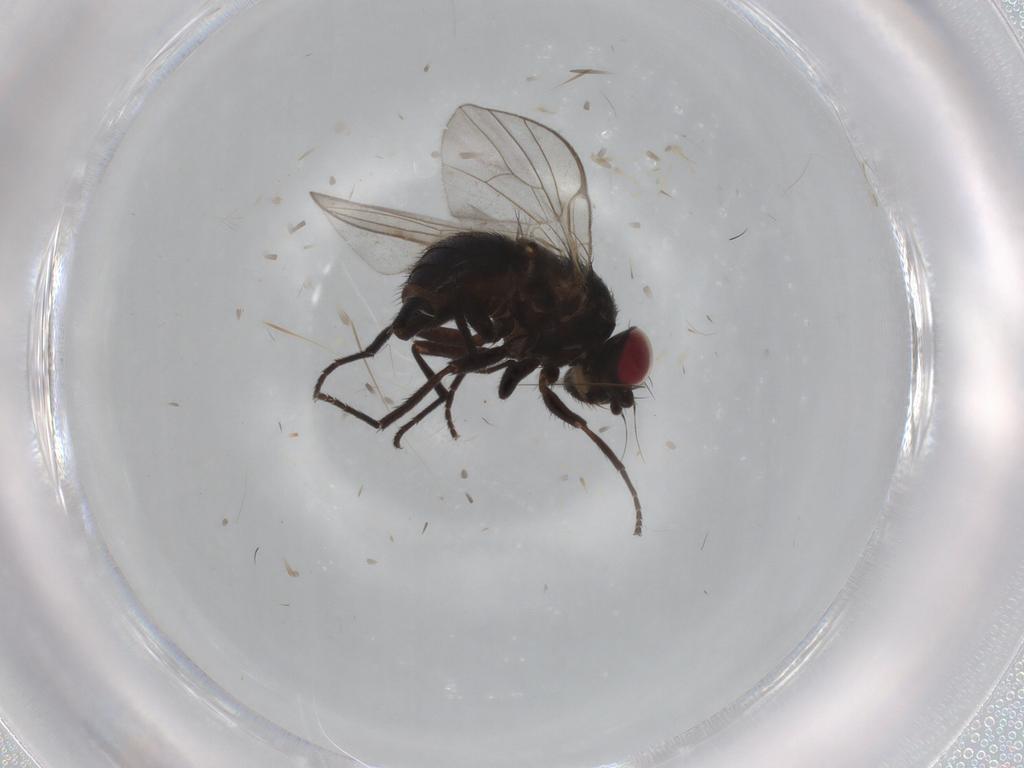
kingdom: Animalia
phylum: Arthropoda
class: Insecta
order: Diptera
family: Agromyzidae
